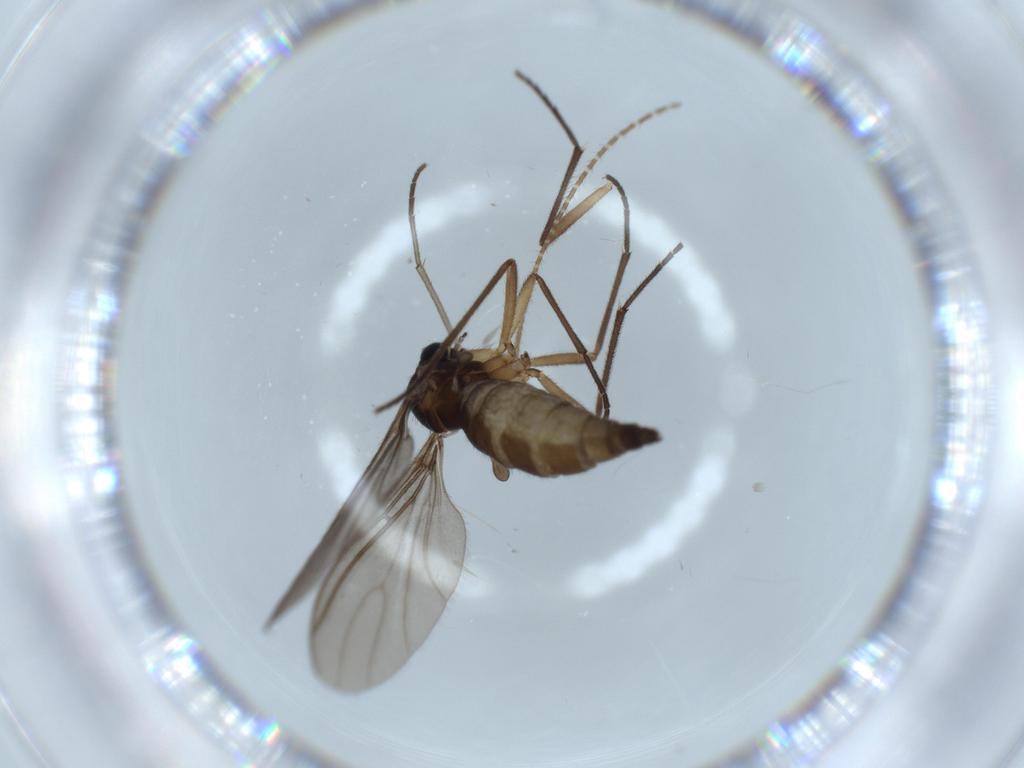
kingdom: Animalia
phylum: Arthropoda
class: Insecta
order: Diptera
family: Sciaridae
